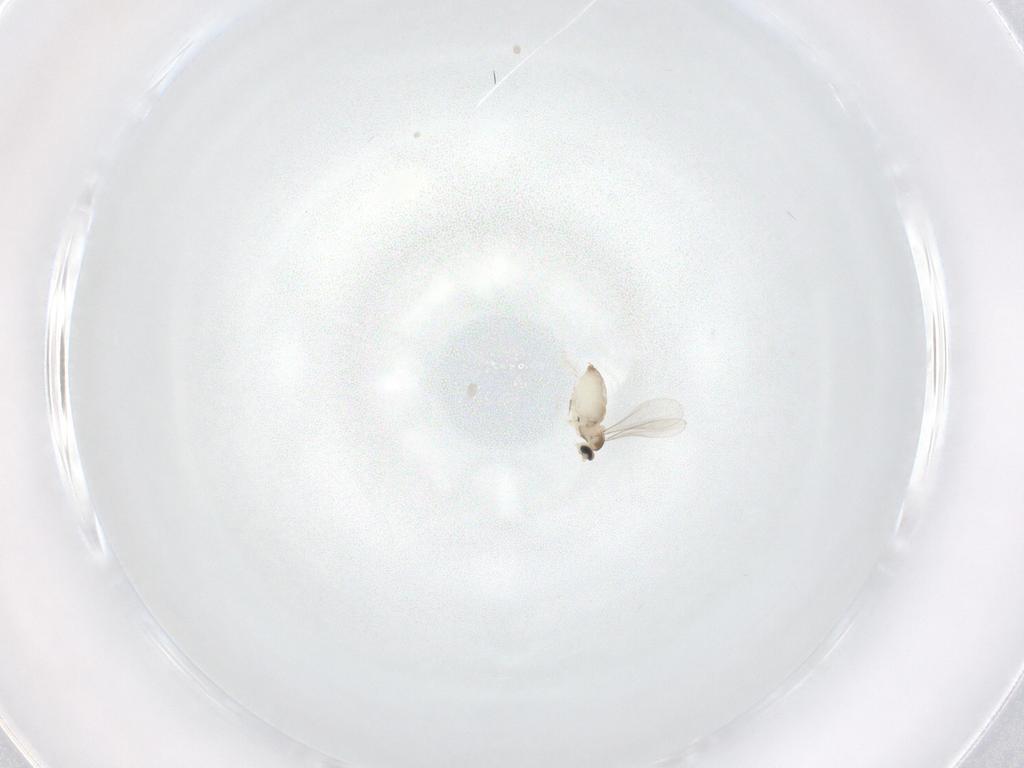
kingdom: Animalia
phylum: Arthropoda
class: Insecta
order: Diptera
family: Cecidomyiidae
